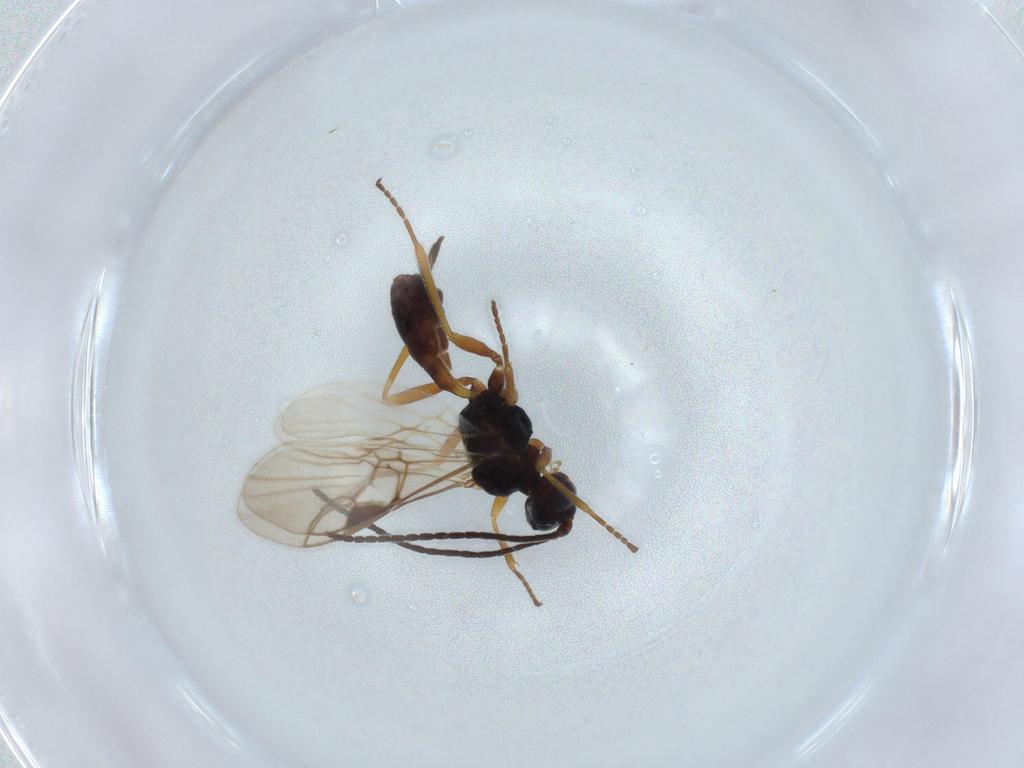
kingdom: Animalia
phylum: Arthropoda
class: Insecta
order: Hymenoptera
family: Braconidae
